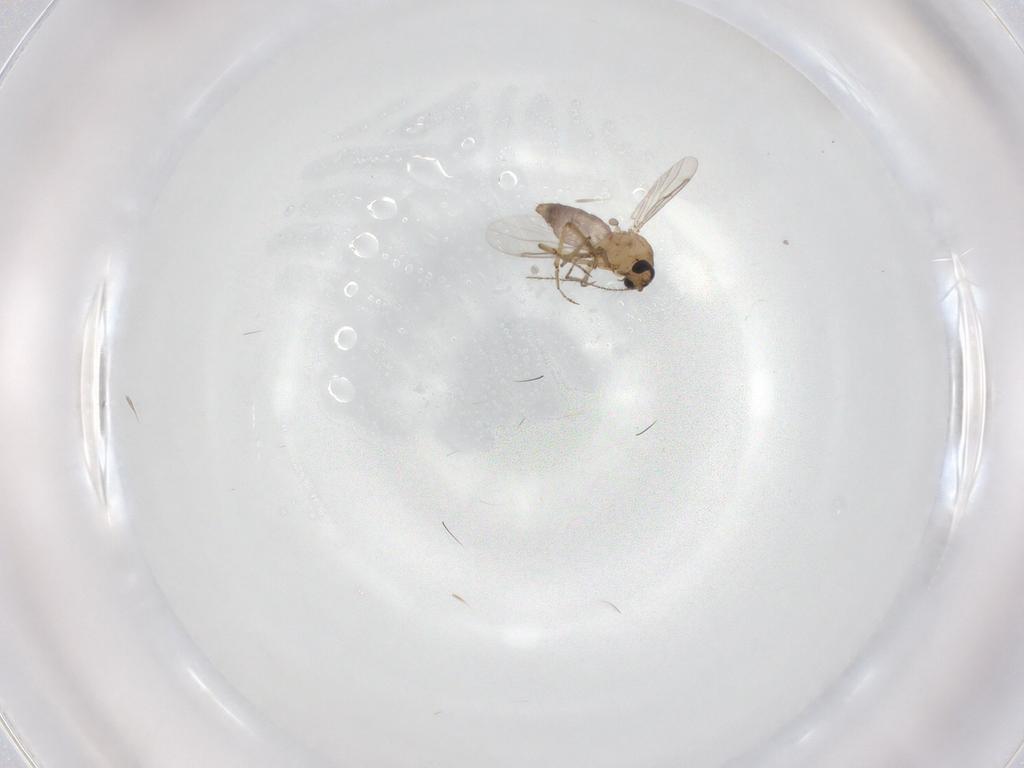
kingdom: Animalia
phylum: Arthropoda
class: Insecta
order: Diptera
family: Ceratopogonidae
